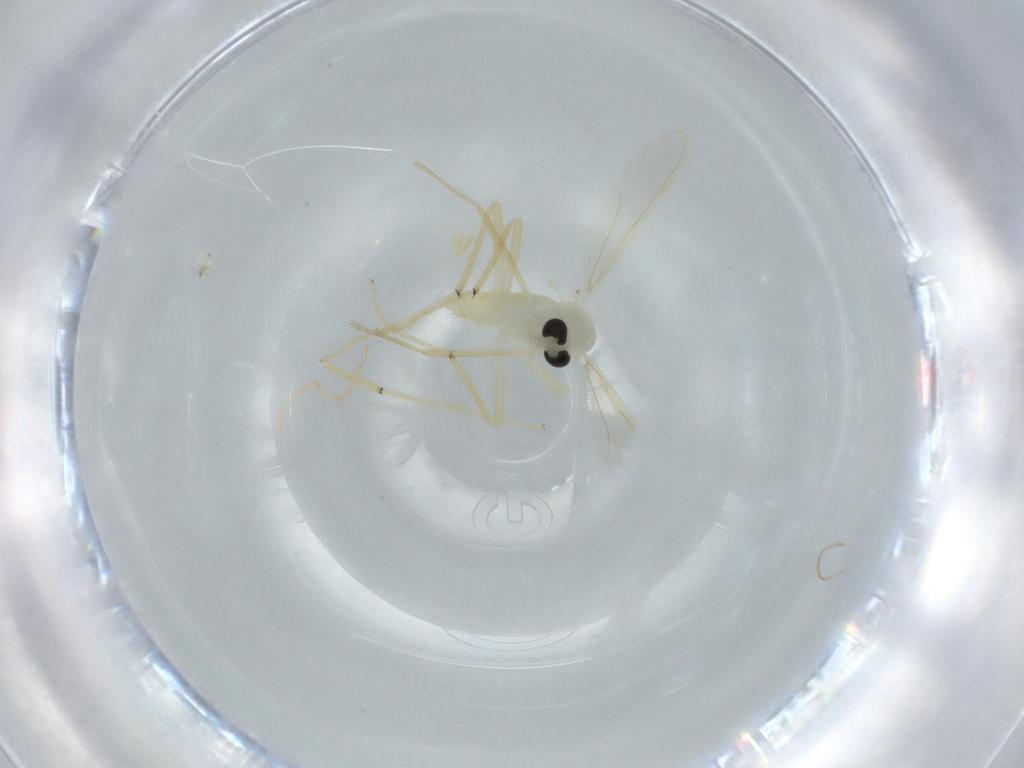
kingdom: Animalia
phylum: Arthropoda
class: Insecta
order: Diptera
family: Chironomidae
